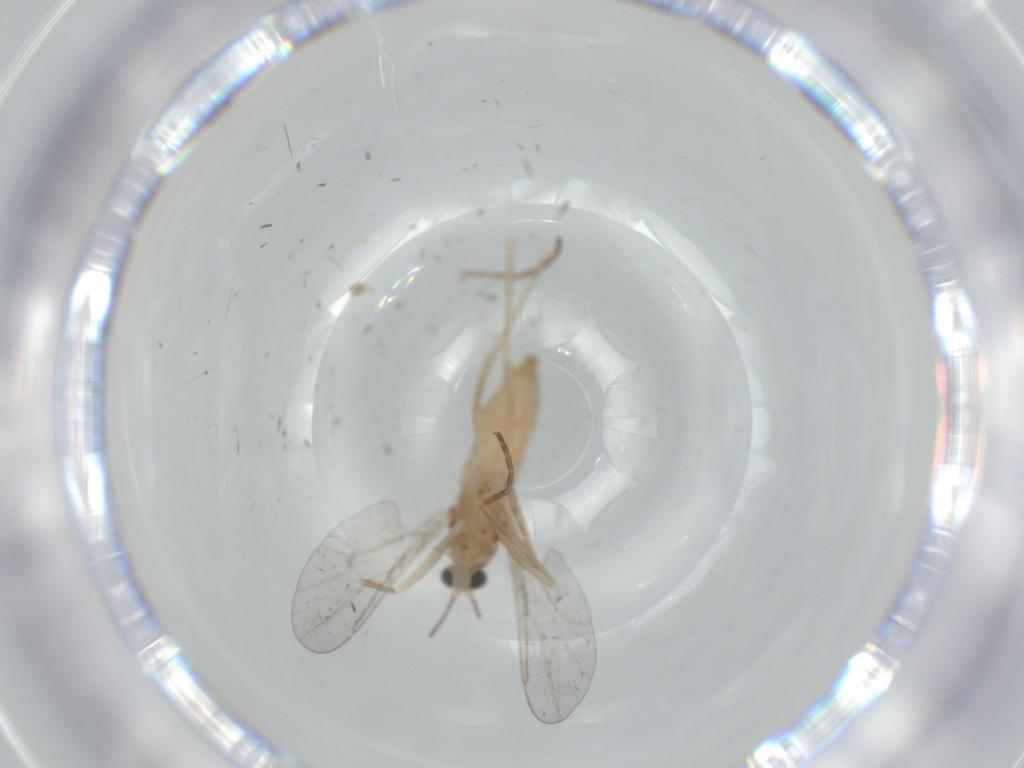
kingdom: Animalia
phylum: Arthropoda
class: Insecta
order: Diptera
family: Cecidomyiidae
